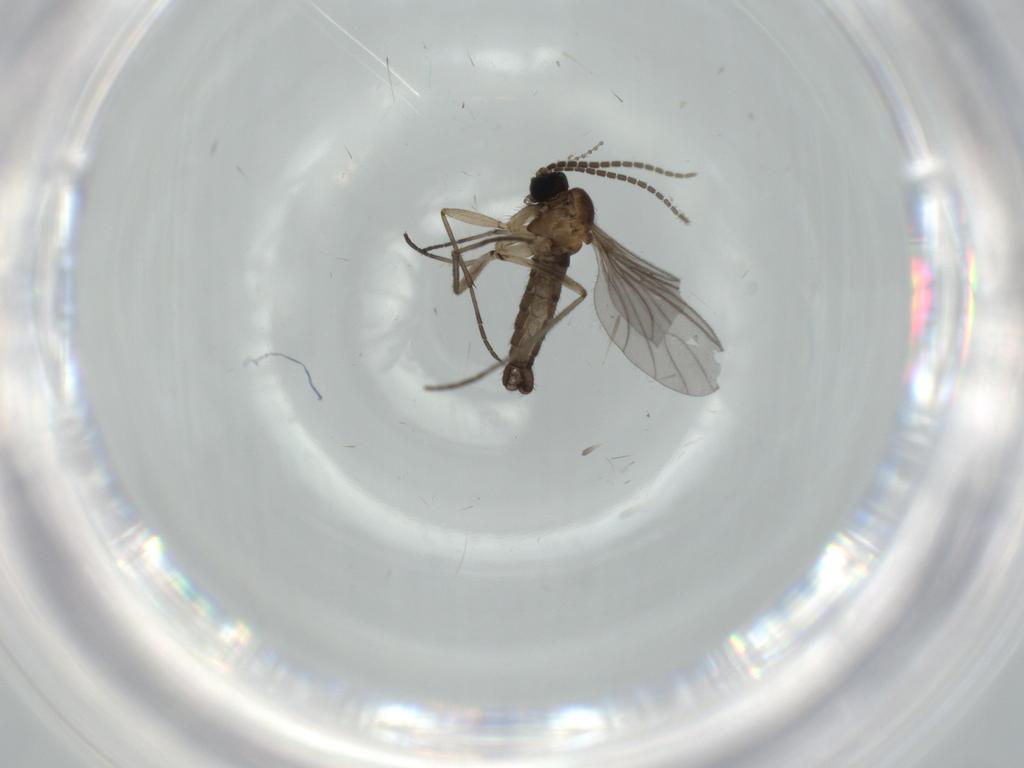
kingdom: Animalia
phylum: Arthropoda
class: Insecta
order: Diptera
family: Sciaridae
